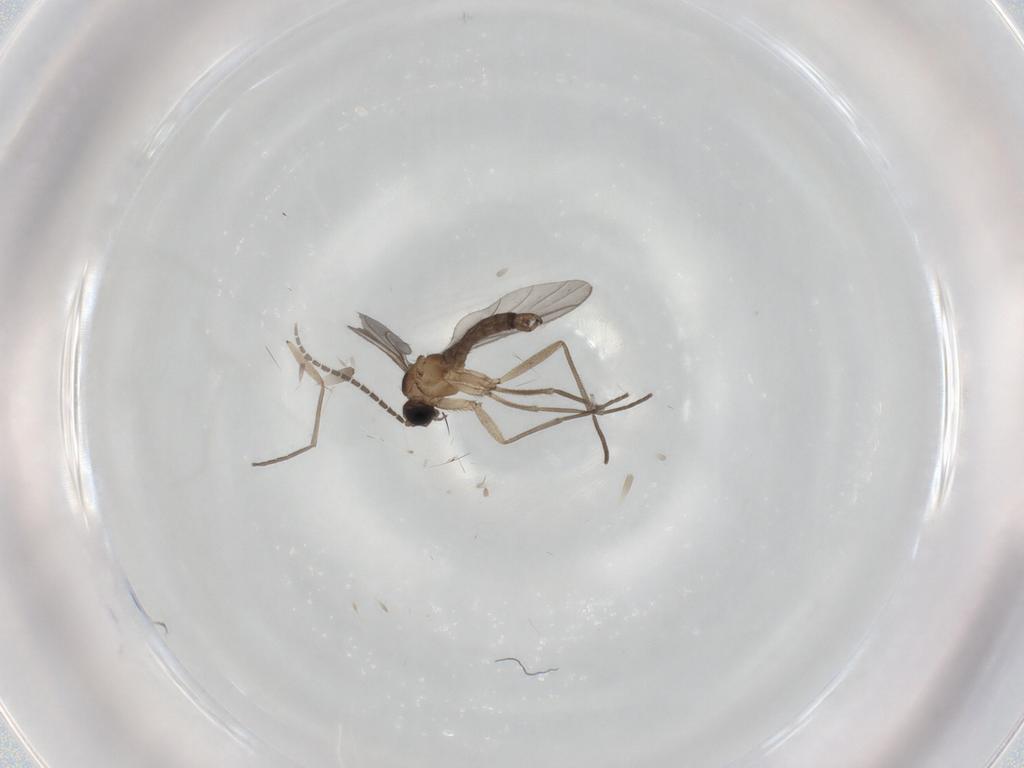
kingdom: Animalia
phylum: Arthropoda
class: Insecta
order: Diptera
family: Cecidomyiidae
